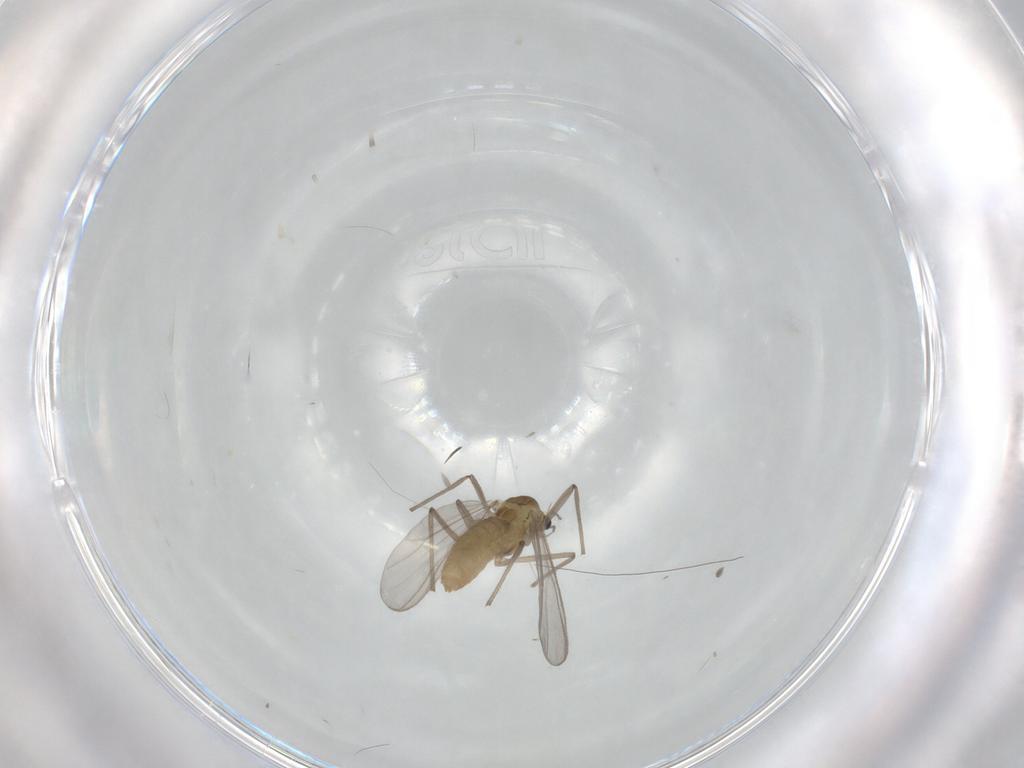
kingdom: Animalia
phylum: Arthropoda
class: Insecta
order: Diptera
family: Chironomidae
